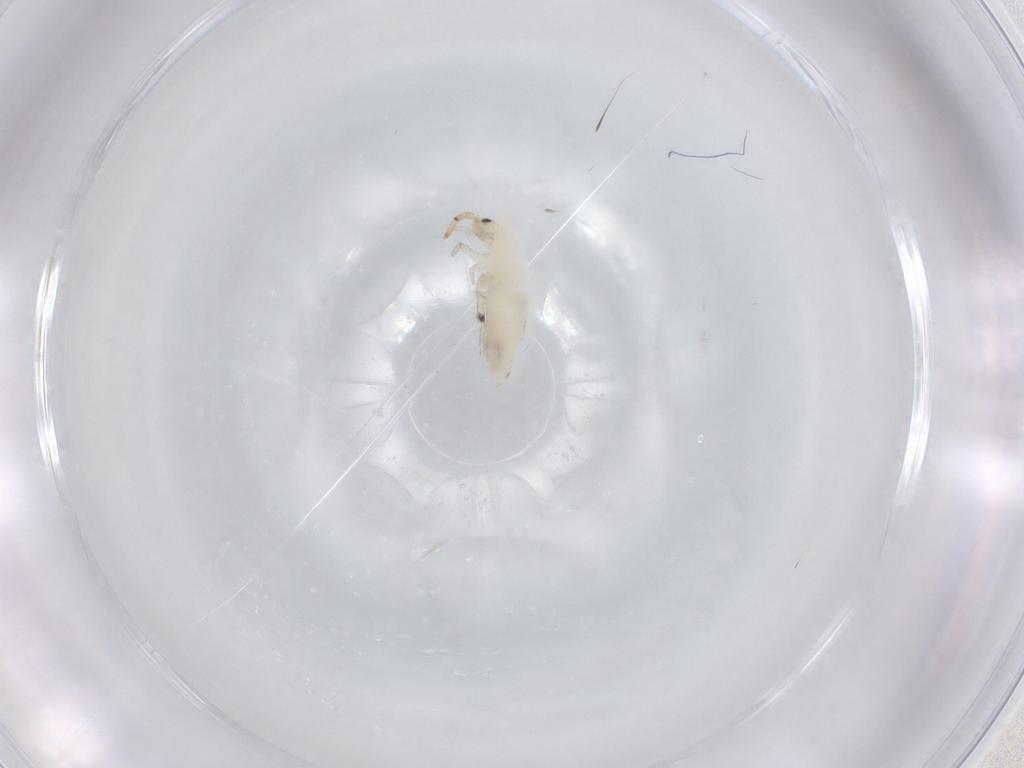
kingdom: Animalia
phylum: Arthropoda
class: Collembola
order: Entomobryomorpha
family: Entomobryidae
